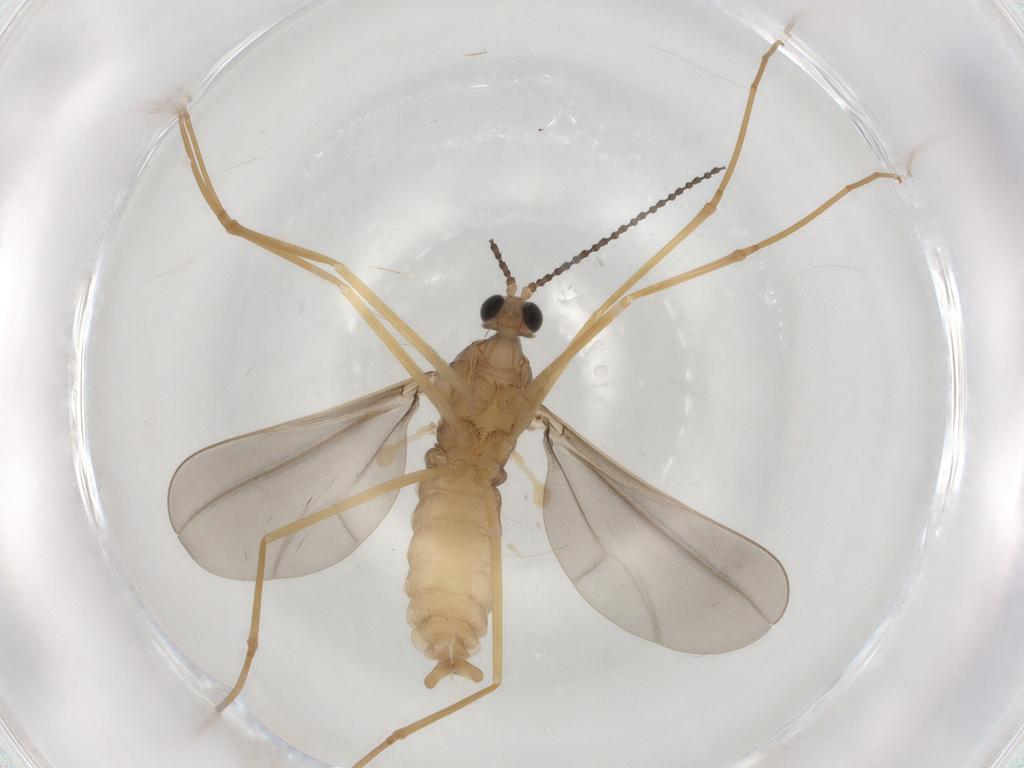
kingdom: Animalia
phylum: Arthropoda
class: Insecta
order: Diptera
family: Cecidomyiidae
